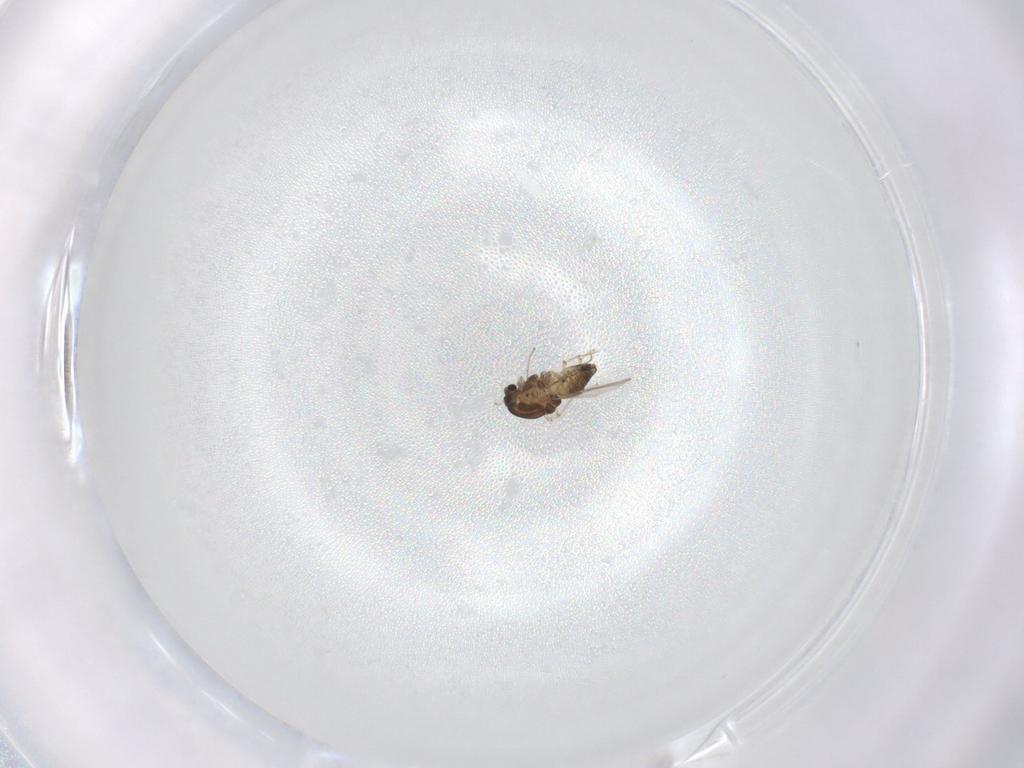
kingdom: Animalia
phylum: Arthropoda
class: Insecta
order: Diptera
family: Chironomidae
